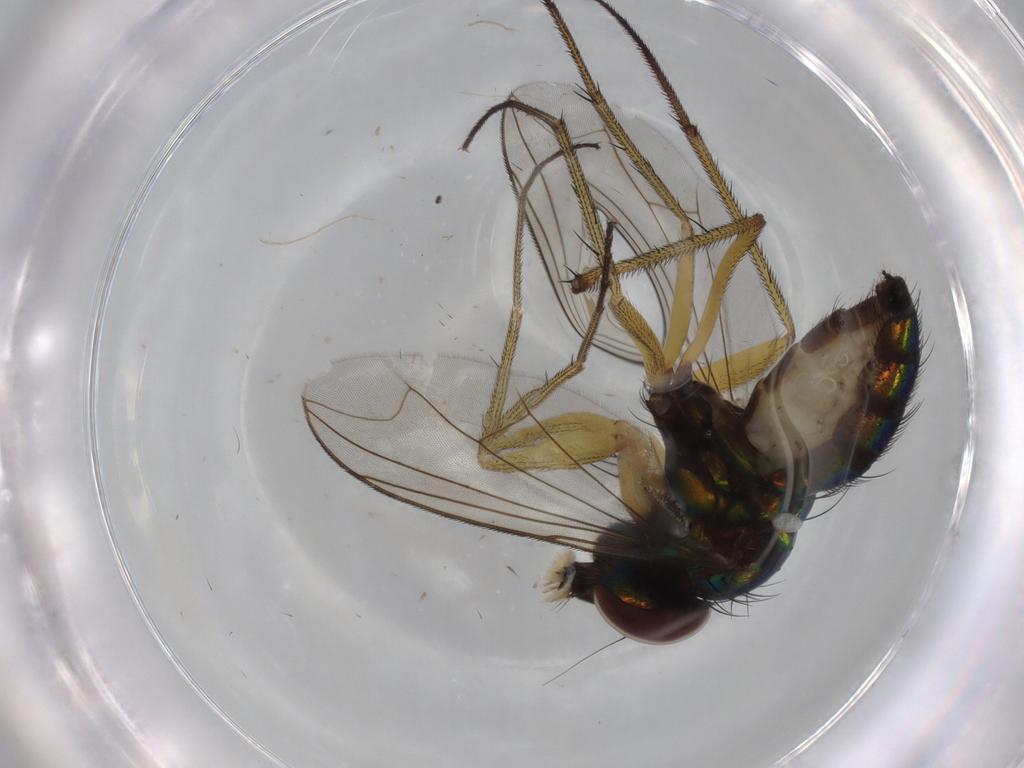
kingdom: Animalia
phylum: Arthropoda
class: Insecta
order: Diptera
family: Dolichopodidae
